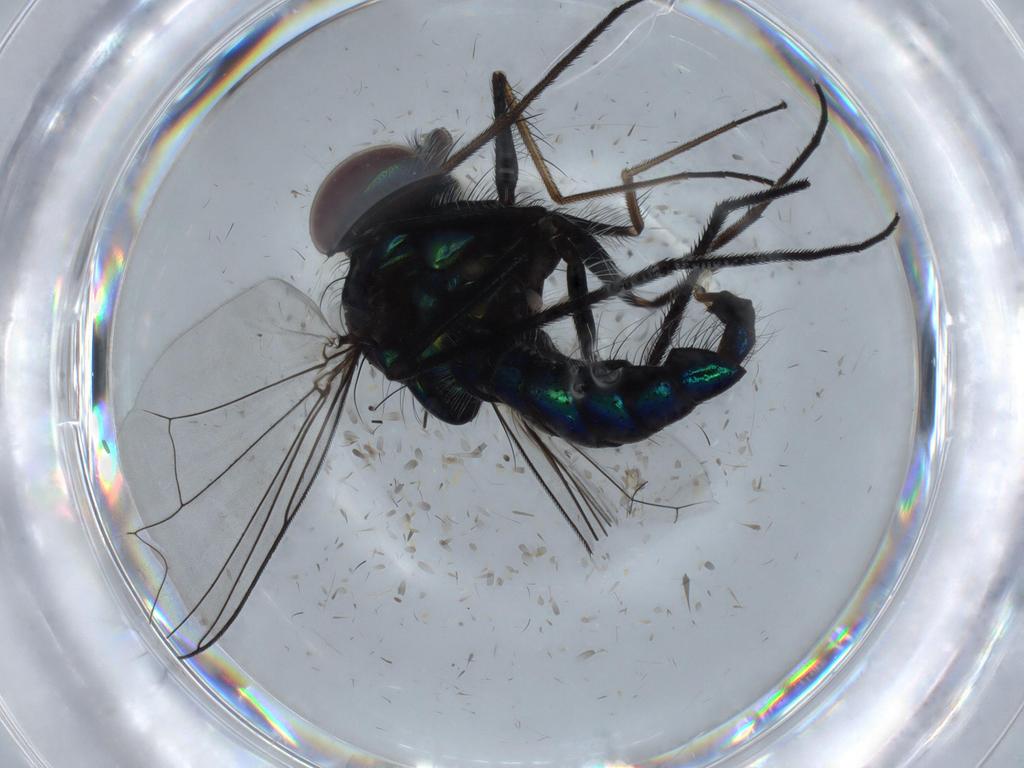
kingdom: Animalia
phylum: Arthropoda
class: Insecta
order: Diptera
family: Dolichopodidae
